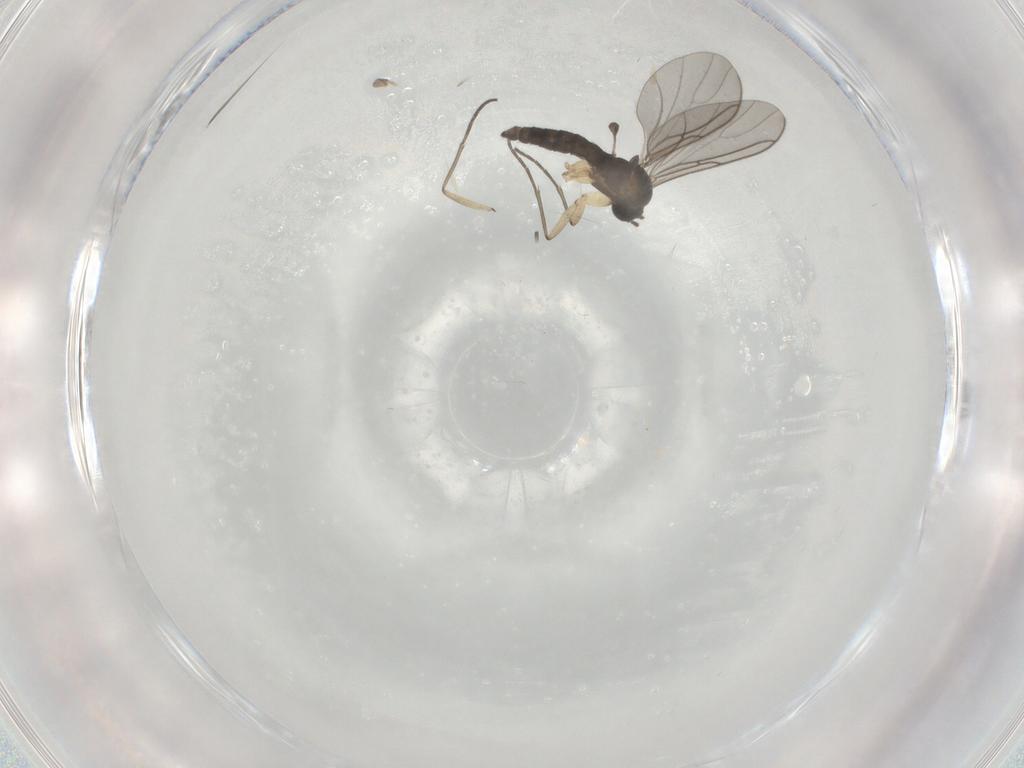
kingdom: Animalia
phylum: Arthropoda
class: Insecta
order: Diptera
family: Sciaridae
